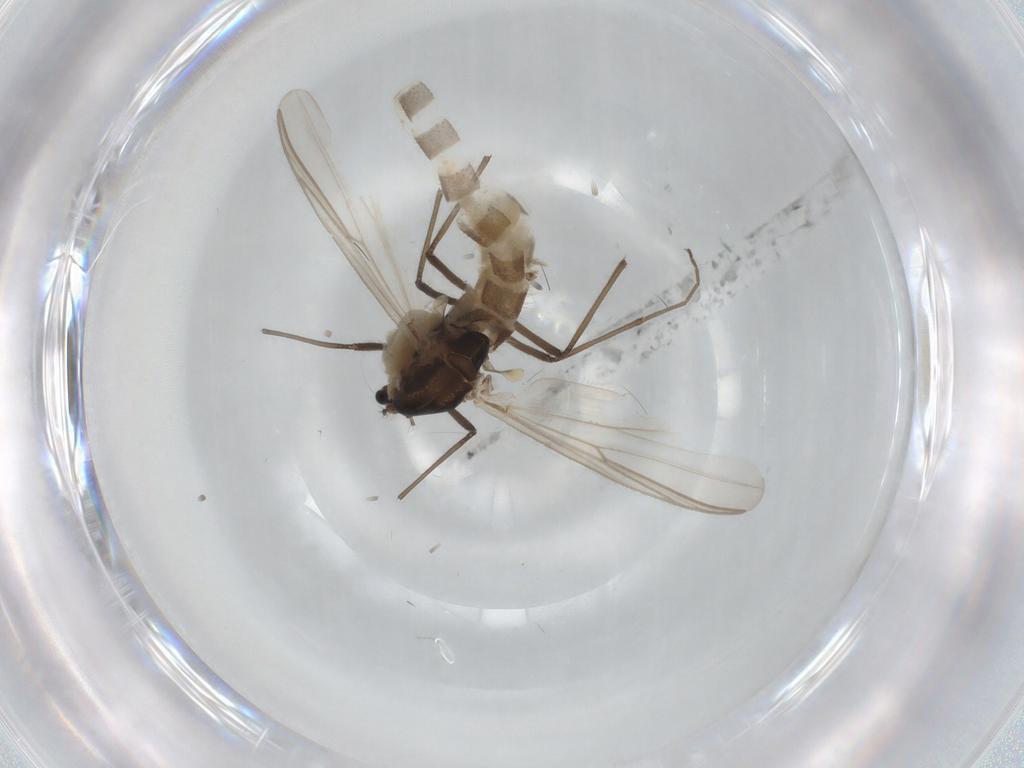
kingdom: Animalia
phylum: Arthropoda
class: Insecta
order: Diptera
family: Chironomidae
